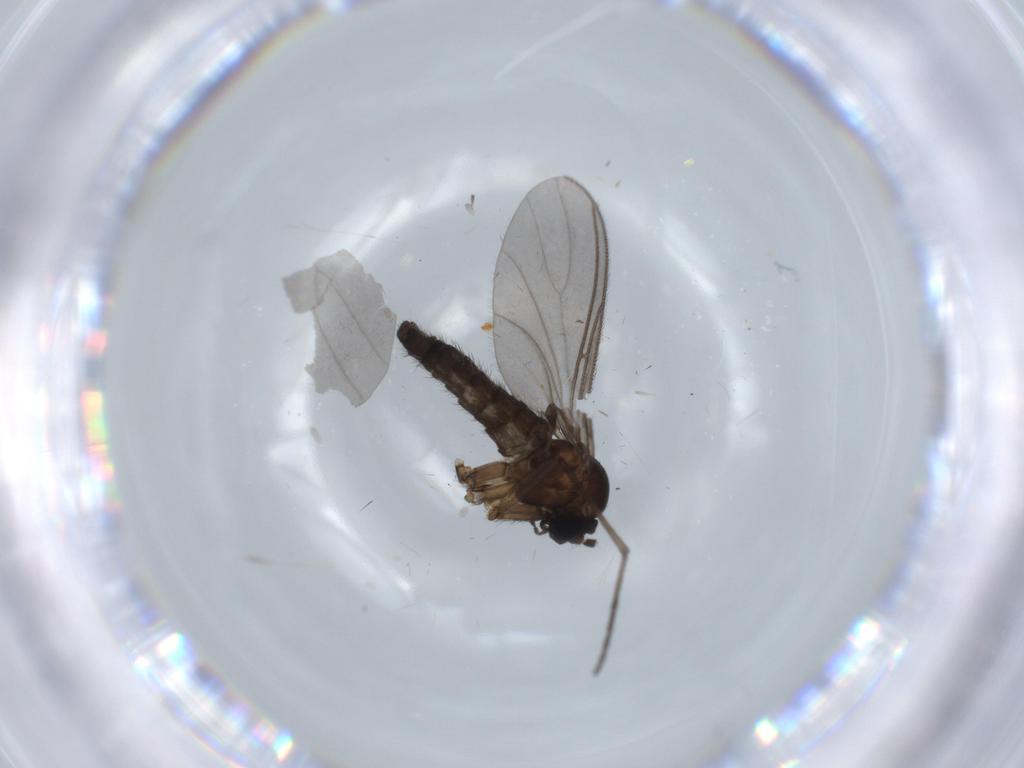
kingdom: Animalia
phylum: Arthropoda
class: Insecta
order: Diptera
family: Sciaridae
